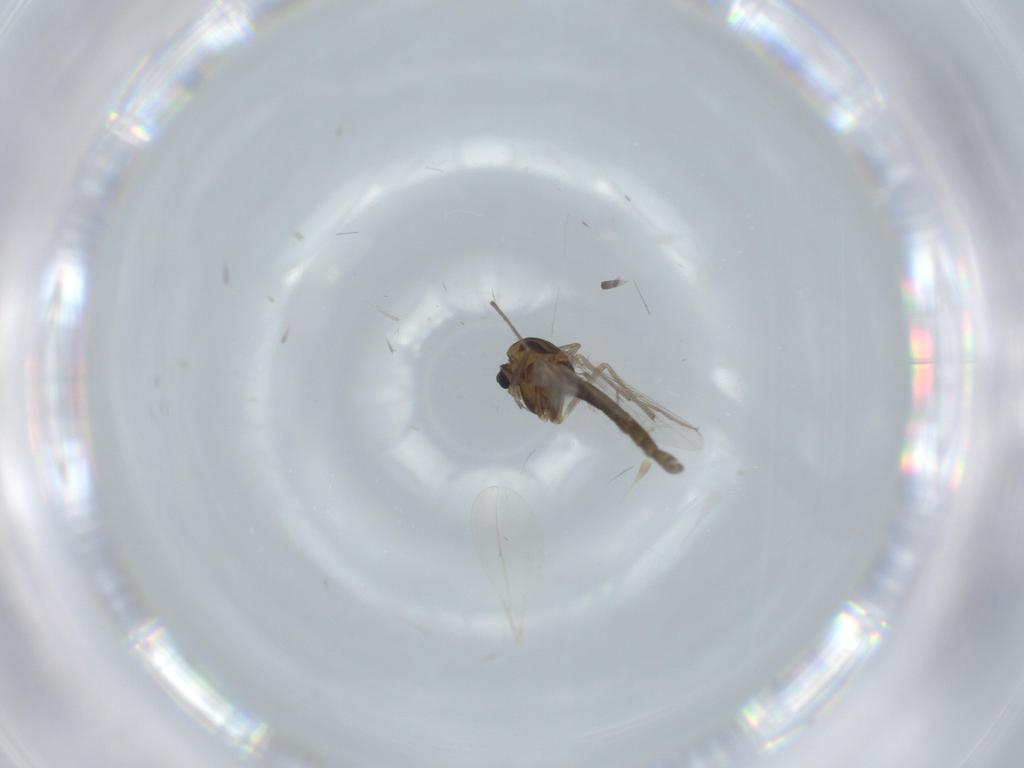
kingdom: Animalia
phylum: Arthropoda
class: Insecta
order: Diptera
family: Chironomidae
